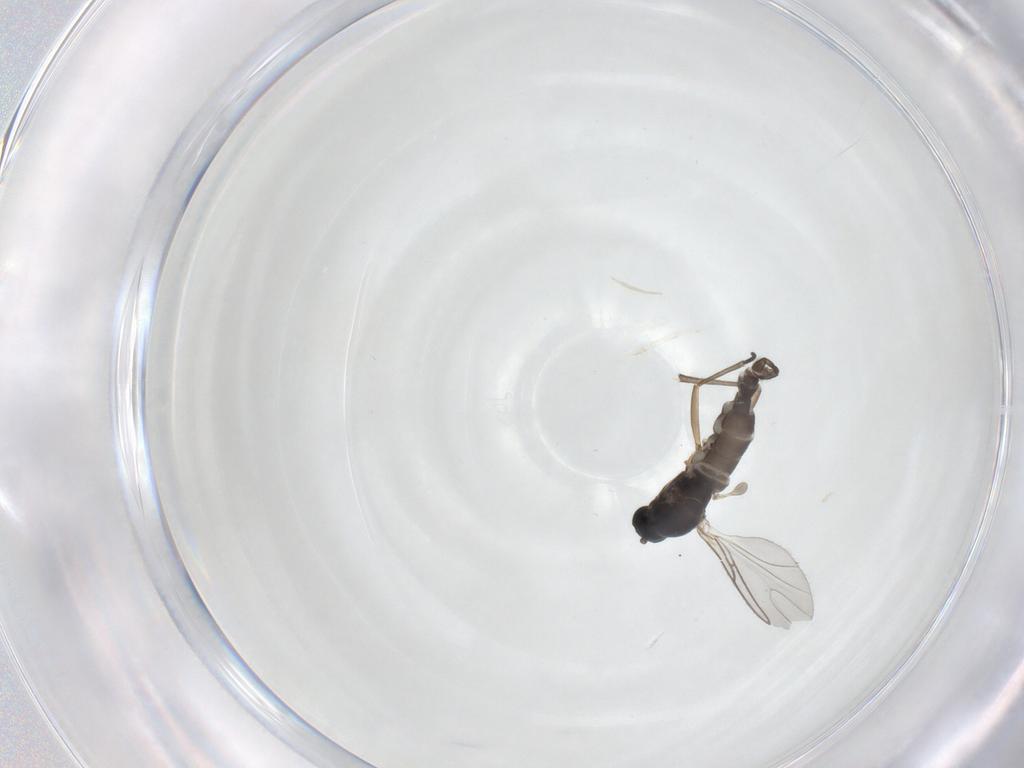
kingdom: Animalia
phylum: Arthropoda
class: Insecta
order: Diptera
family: Sciaridae
